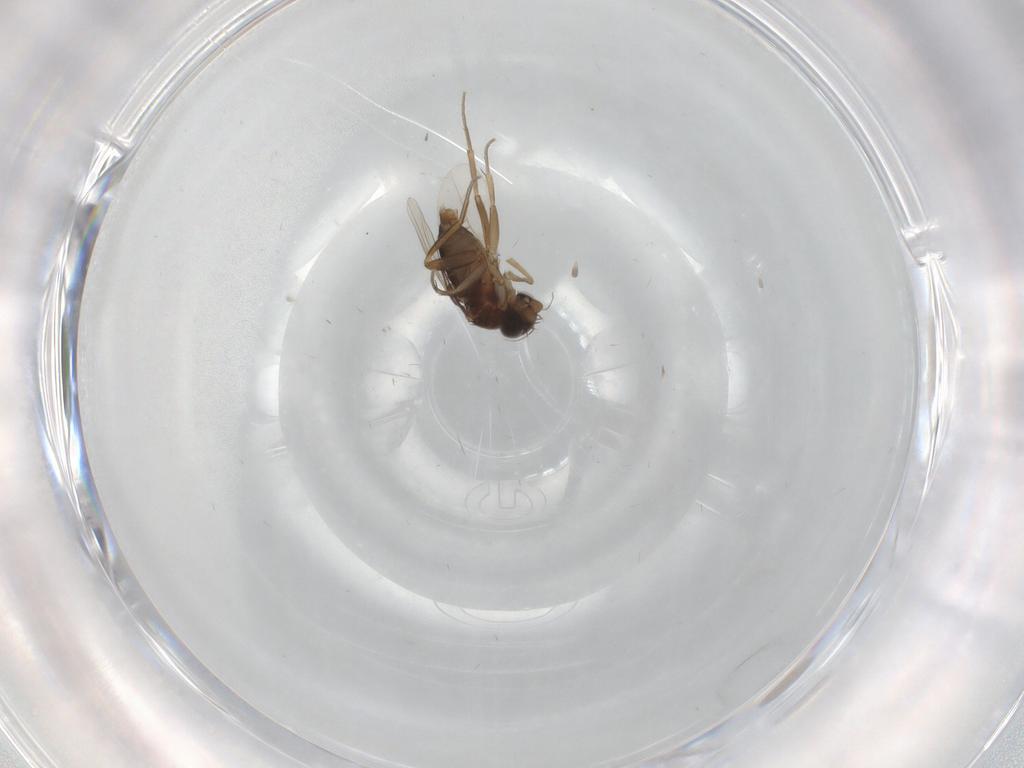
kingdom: Animalia
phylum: Arthropoda
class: Insecta
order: Diptera
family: Phoridae
